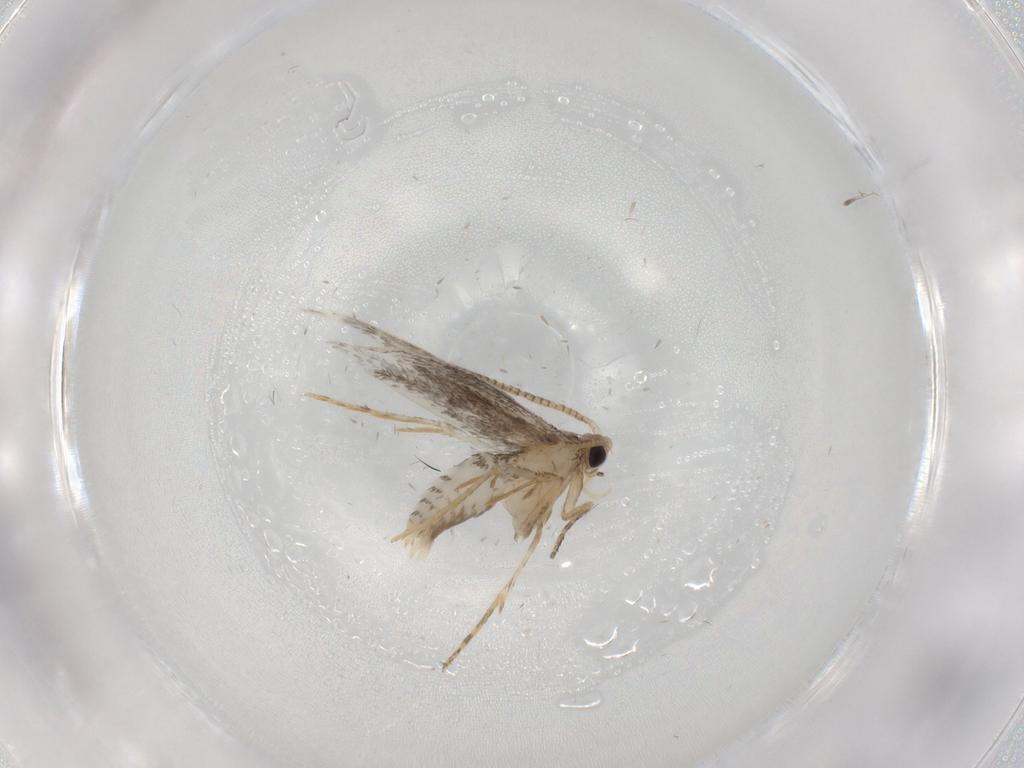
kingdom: Animalia
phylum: Arthropoda
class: Insecta
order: Lepidoptera
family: Tineidae
